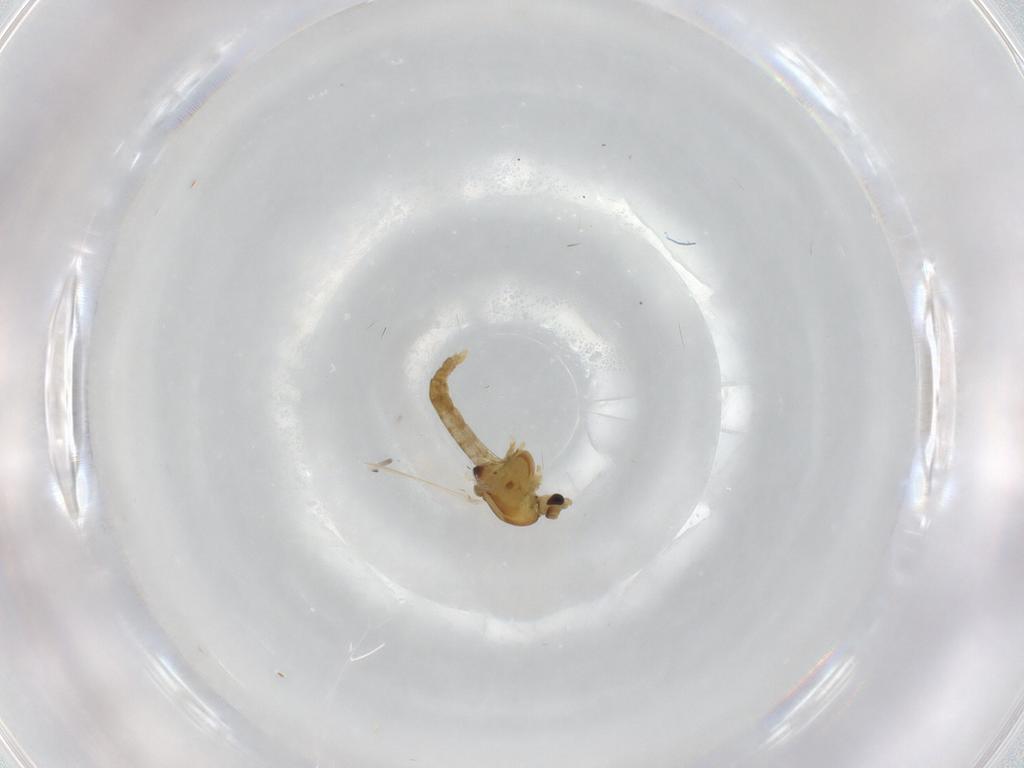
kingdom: Animalia
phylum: Arthropoda
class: Insecta
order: Diptera
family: Chironomidae
